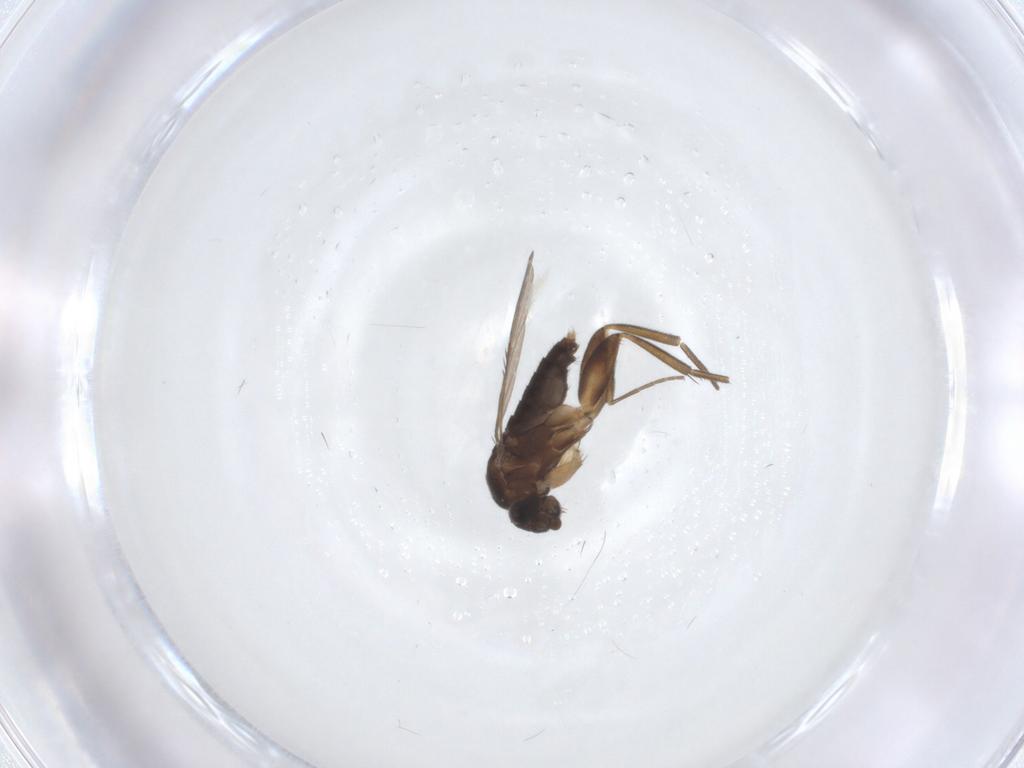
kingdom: Animalia
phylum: Arthropoda
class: Insecta
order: Diptera
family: Phoridae
